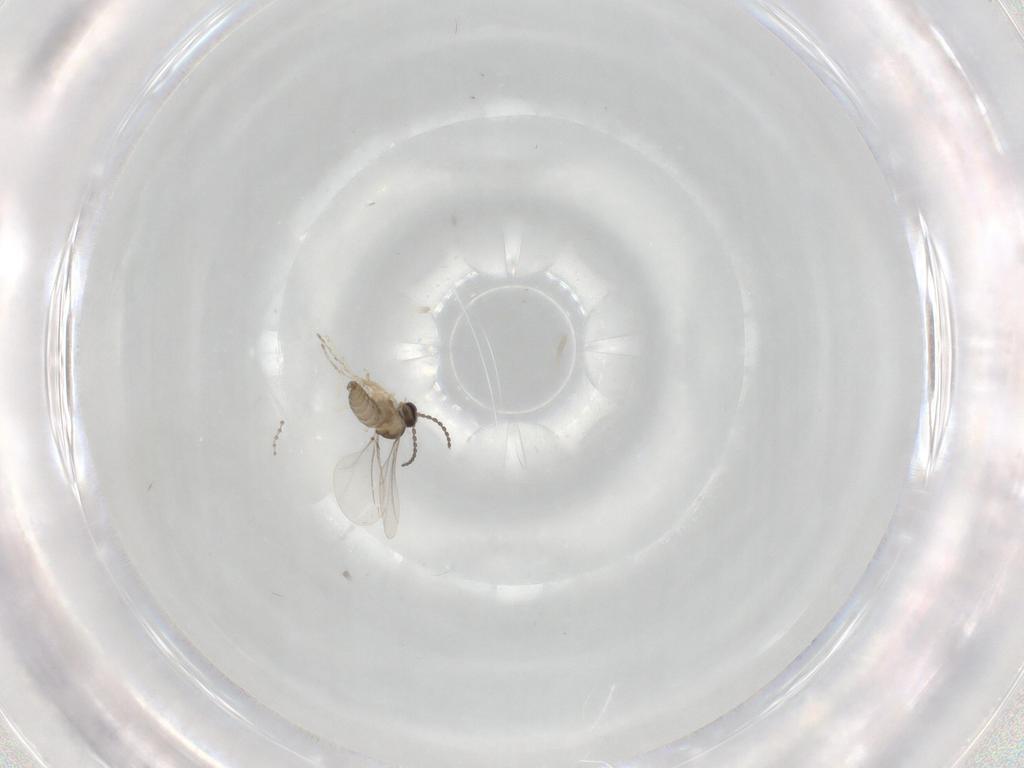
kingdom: Animalia
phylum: Arthropoda
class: Insecta
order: Diptera
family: Cecidomyiidae
